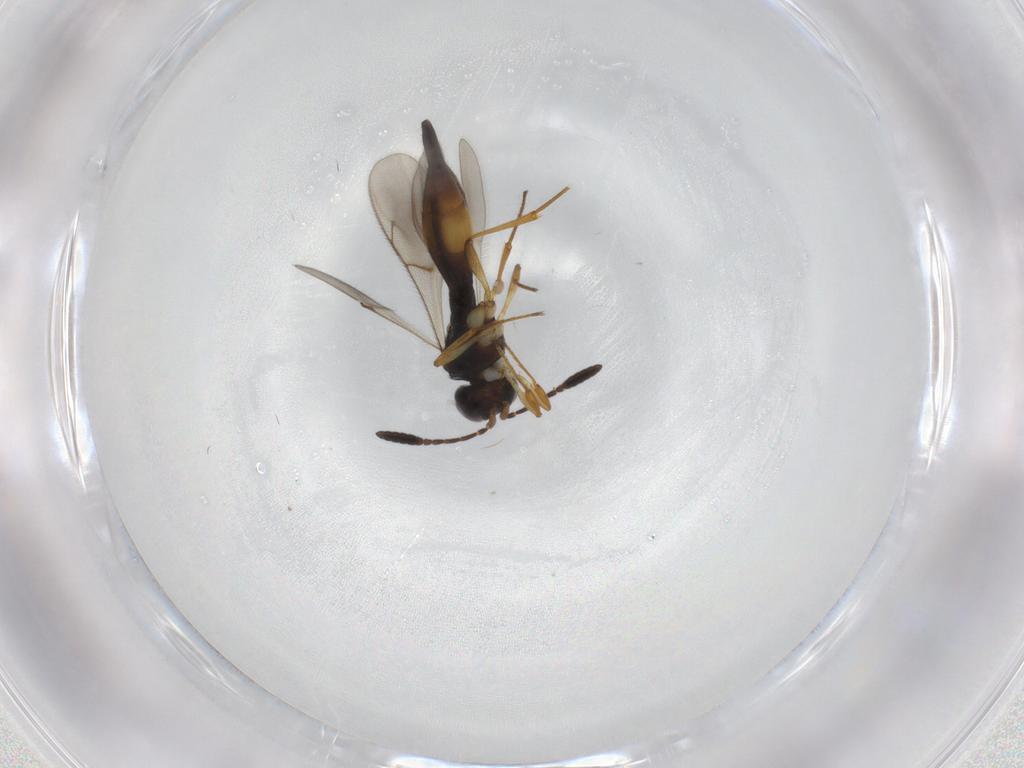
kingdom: Animalia
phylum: Arthropoda
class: Insecta
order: Hymenoptera
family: Scelionidae
